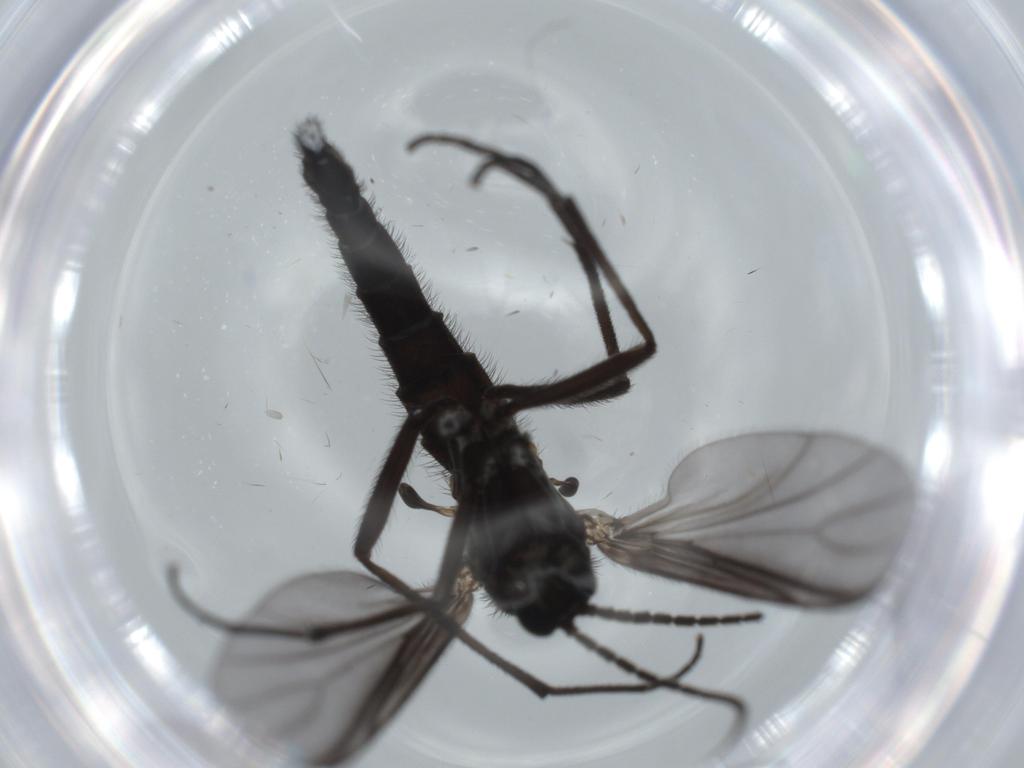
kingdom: Animalia
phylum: Arthropoda
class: Insecta
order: Diptera
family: Sciaridae
